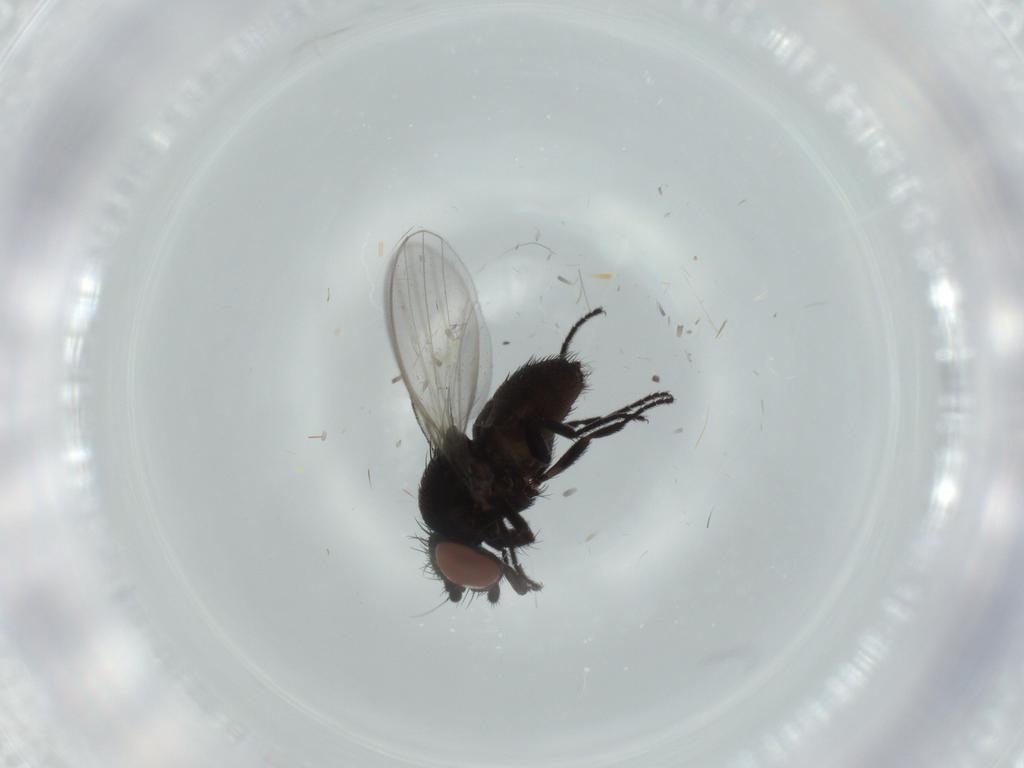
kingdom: Animalia
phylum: Arthropoda
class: Insecta
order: Diptera
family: Milichiidae
